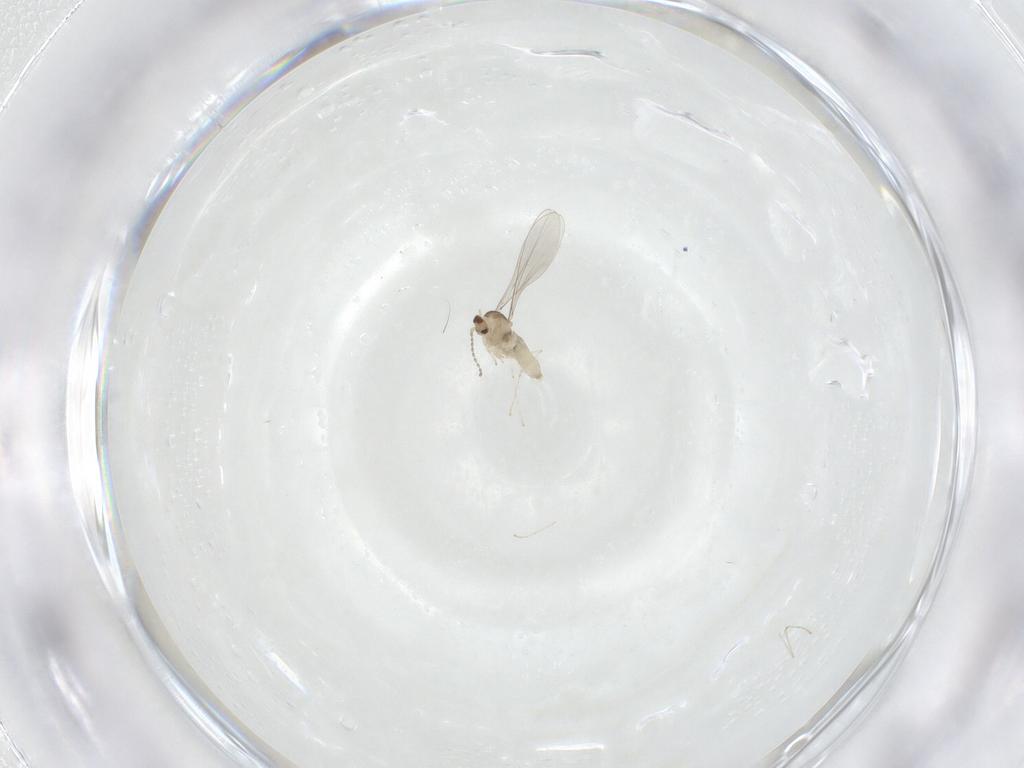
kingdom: Animalia
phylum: Arthropoda
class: Insecta
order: Diptera
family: Cecidomyiidae
